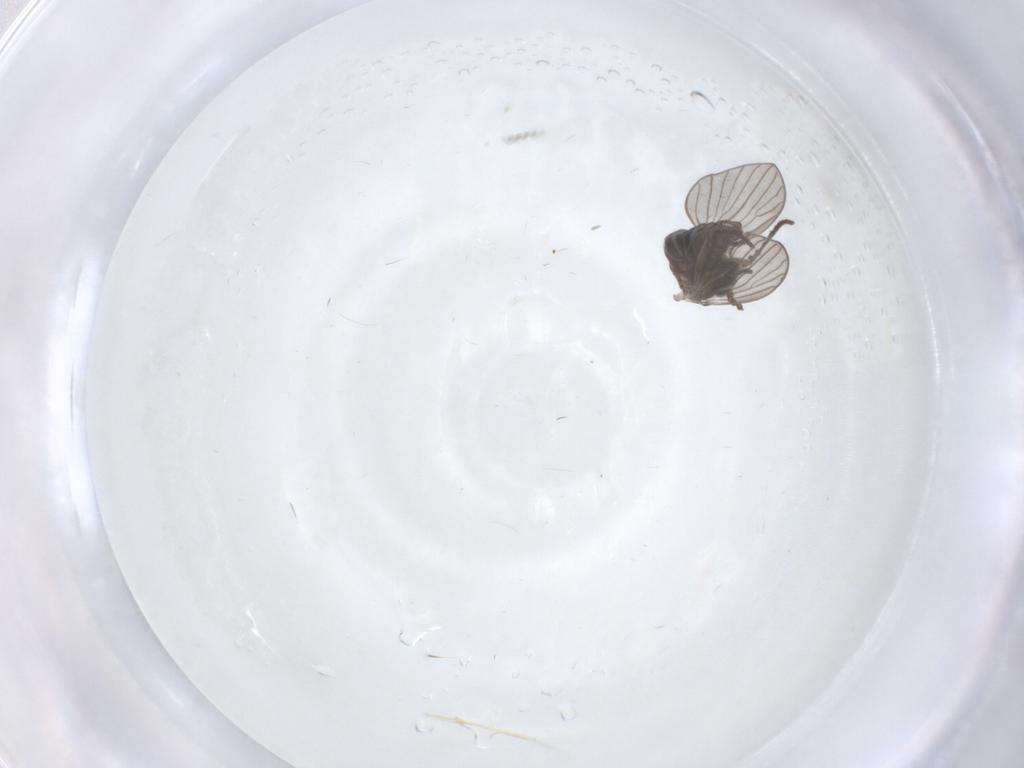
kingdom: Animalia
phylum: Arthropoda
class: Insecta
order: Diptera
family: Psychodidae
